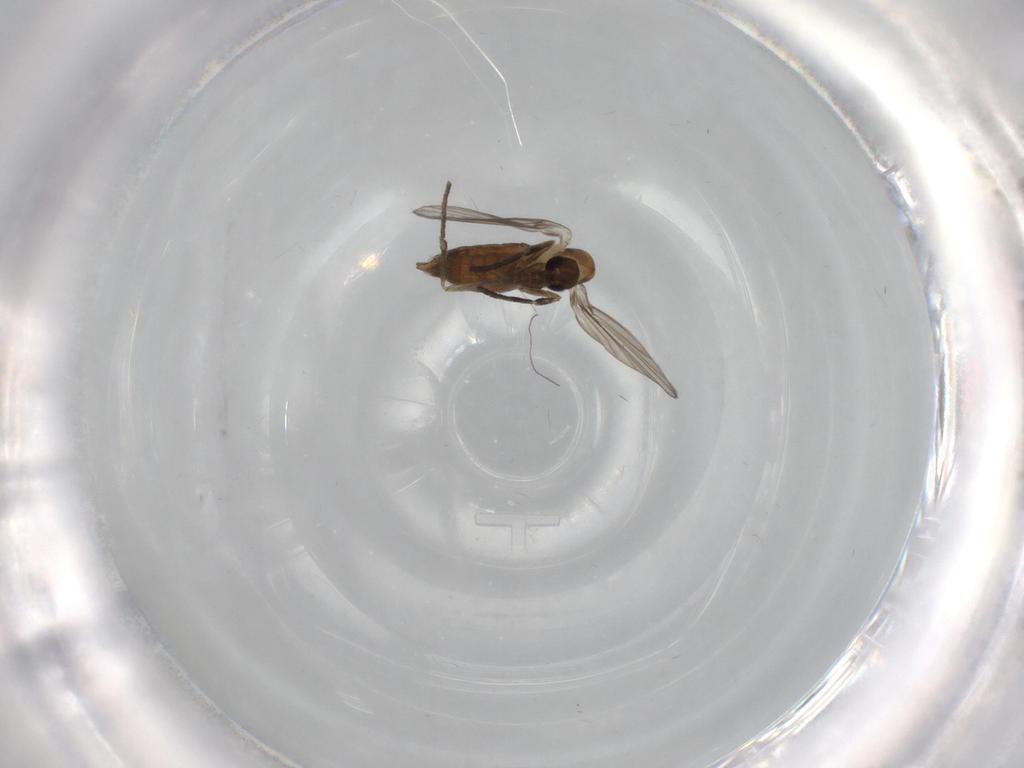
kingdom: Animalia
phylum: Arthropoda
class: Insecta
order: Diptera
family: Psychodidae
